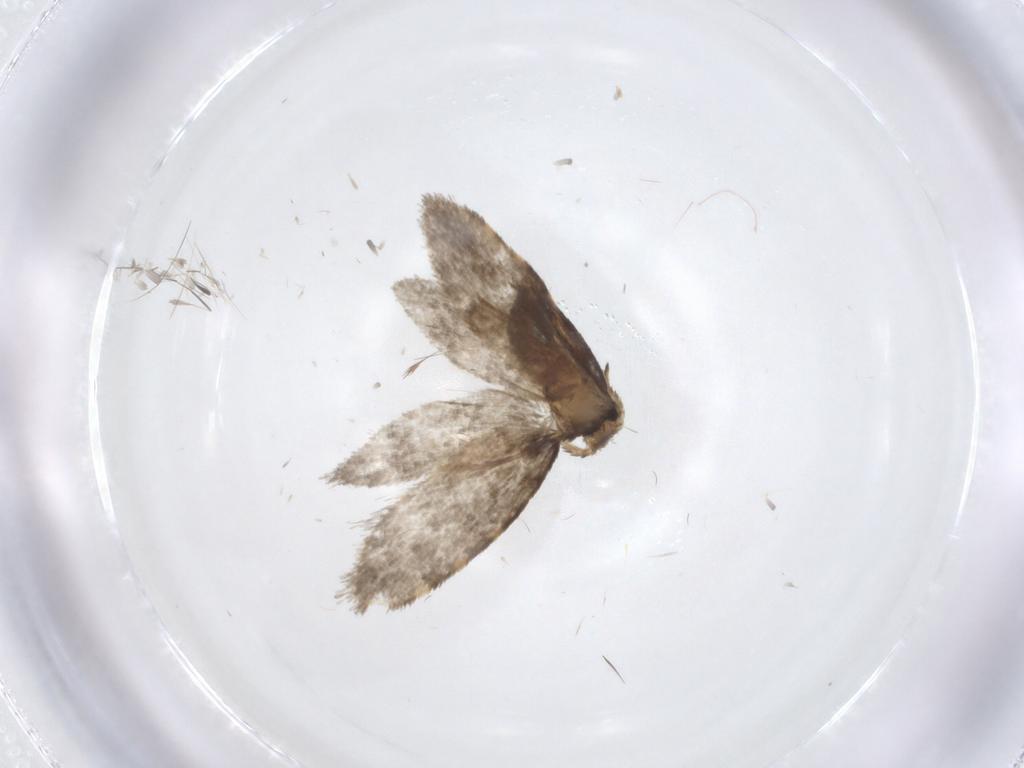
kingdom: Animalia
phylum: Arthropoda
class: Insecta
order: Lepidoptera
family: Psychidae
